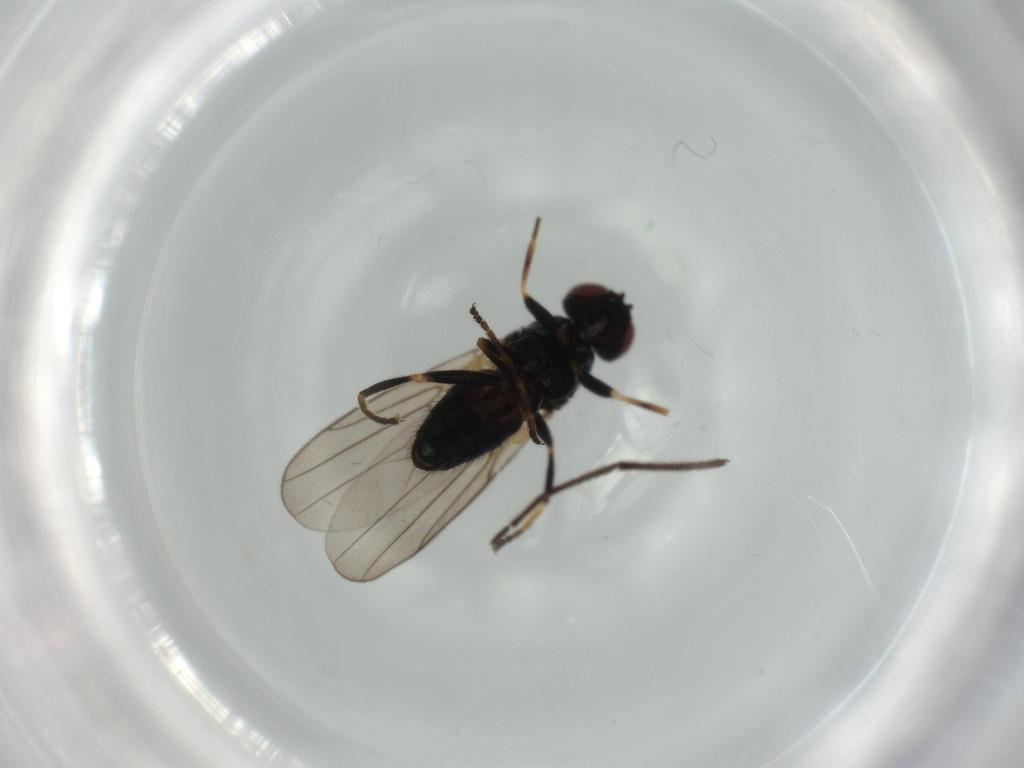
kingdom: Animalia
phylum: Arthropoda
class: Insecta
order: Diptera
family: Chloropidae
